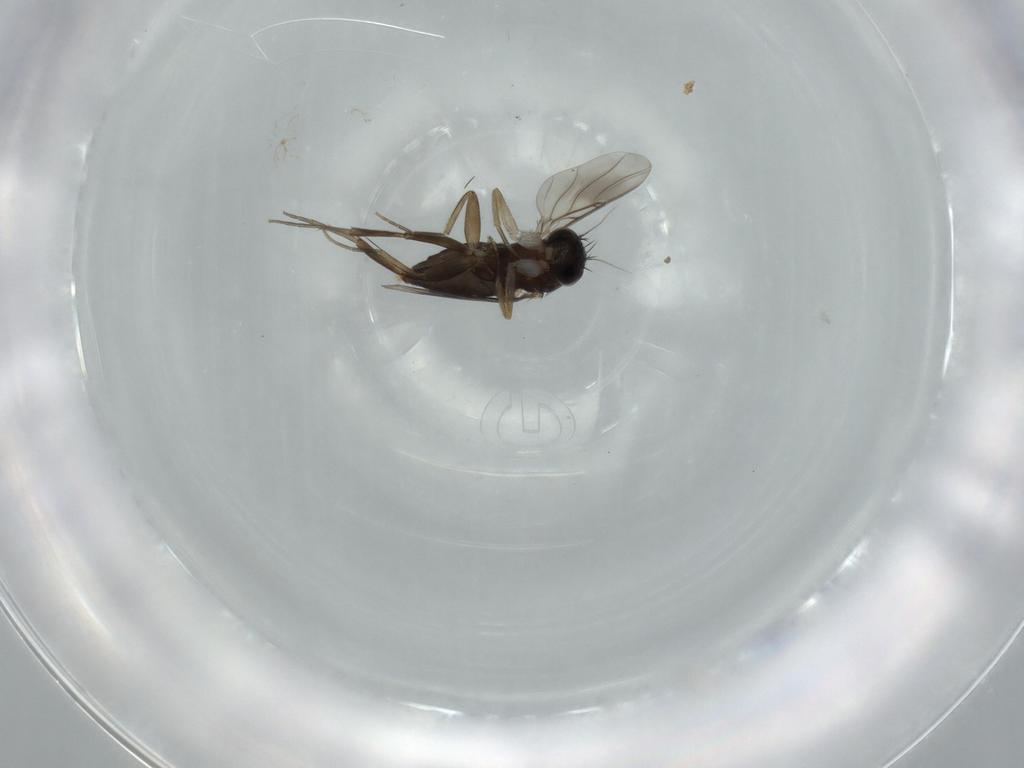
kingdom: Animalia
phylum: Arthropoda
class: Insecta
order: Diptera
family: Phoridae
